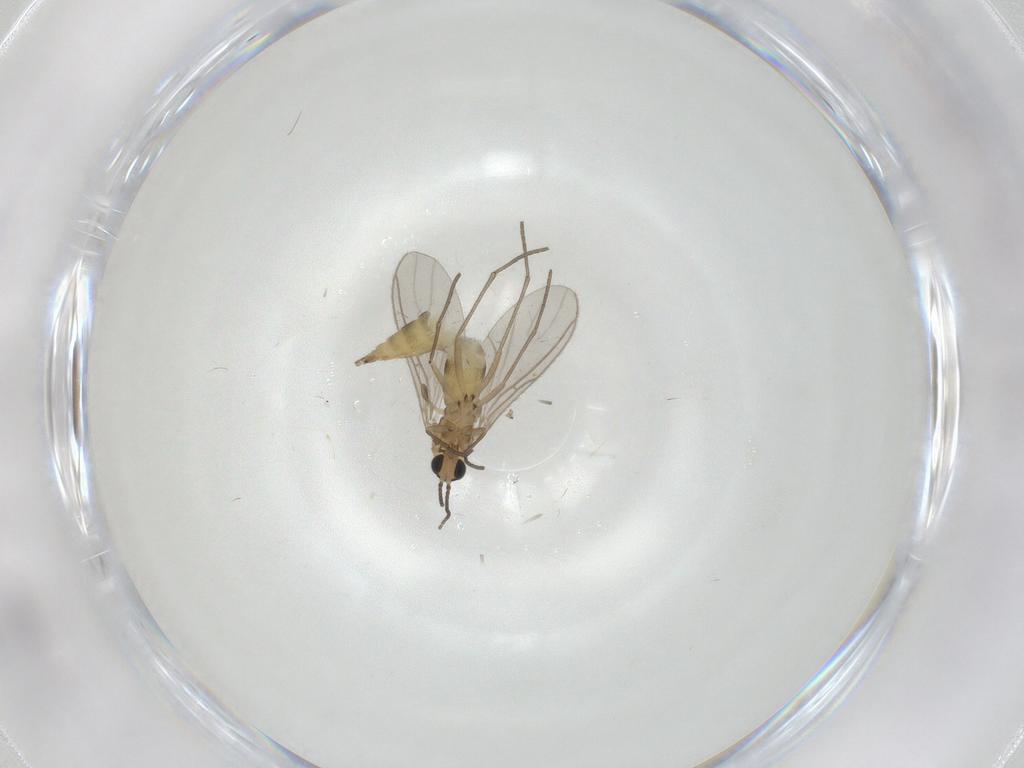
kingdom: Animalia
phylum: Arthropoda
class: Insecta
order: Diptera
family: Sciaridae
